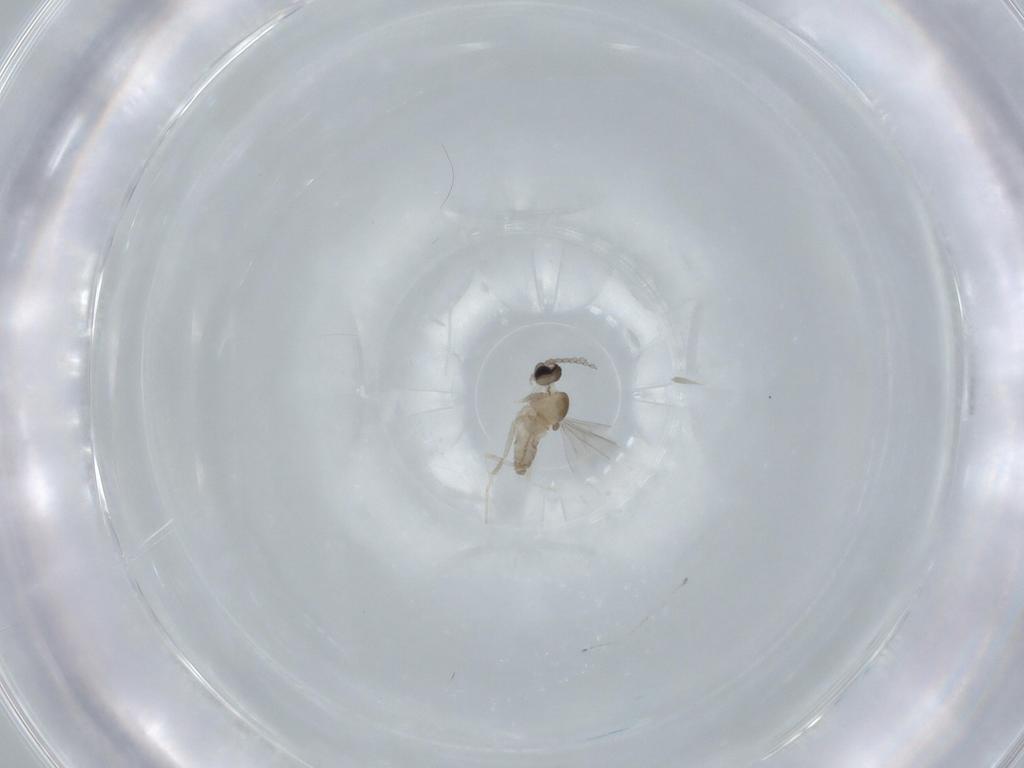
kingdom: Animalia
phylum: Arthropoda
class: Insecta
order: Diptera
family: Cecidomyiidae
